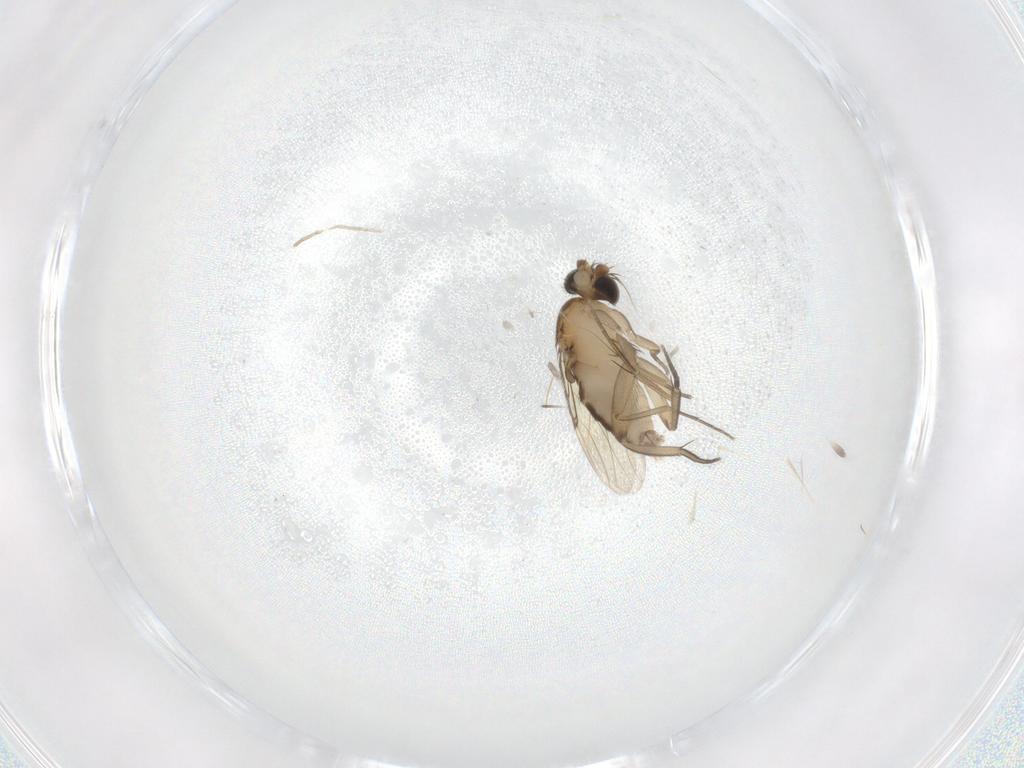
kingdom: Animalia
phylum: Arthropoda
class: Insecta
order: Diptera
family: Phoridae
